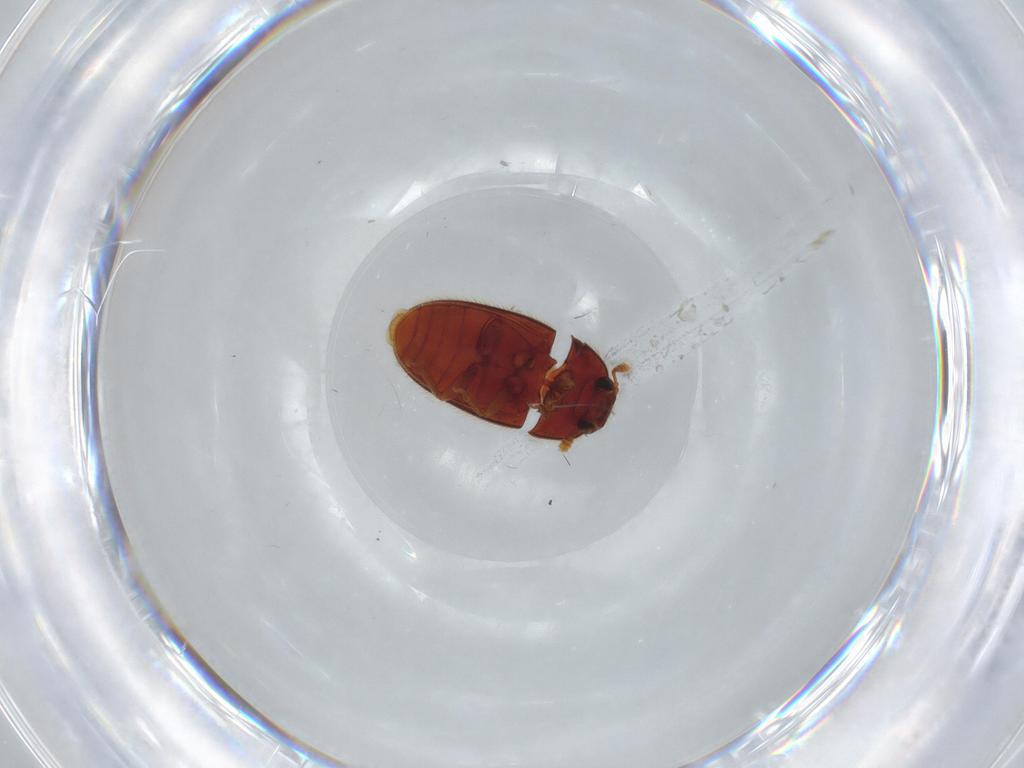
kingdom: Animalia
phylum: Arthropoda
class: Insecta
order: Coleoptera
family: Biphyllidae
